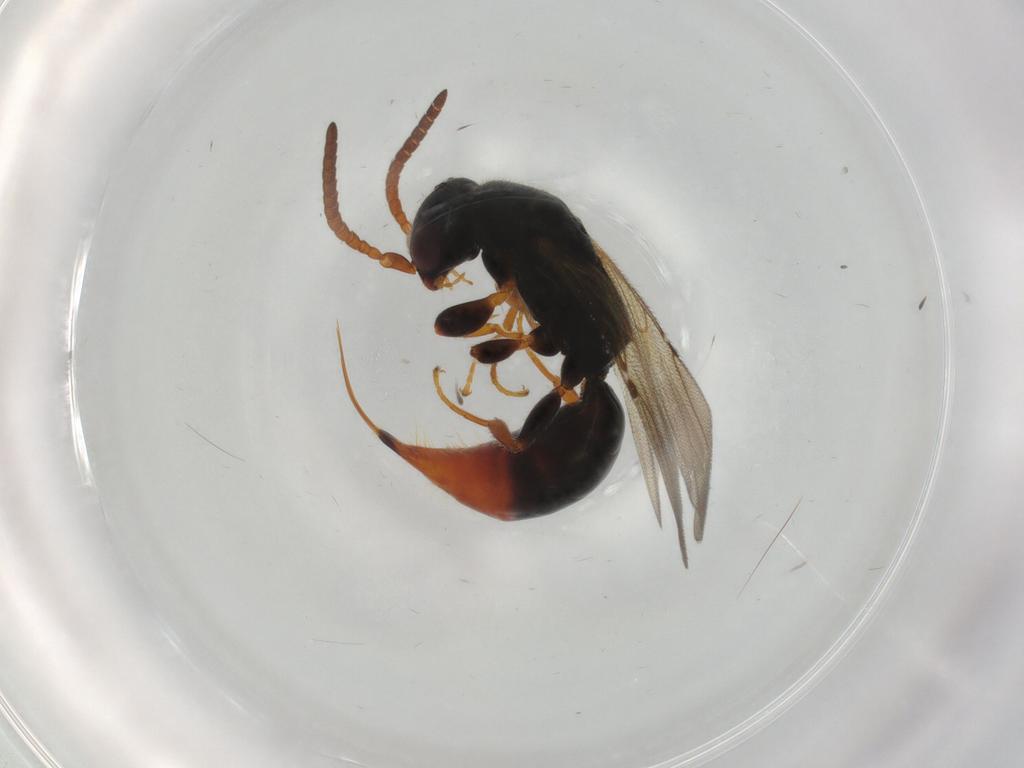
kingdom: Animalia
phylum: Arthropoda
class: Insecta
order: Hymenoptera
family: Bethylidae
